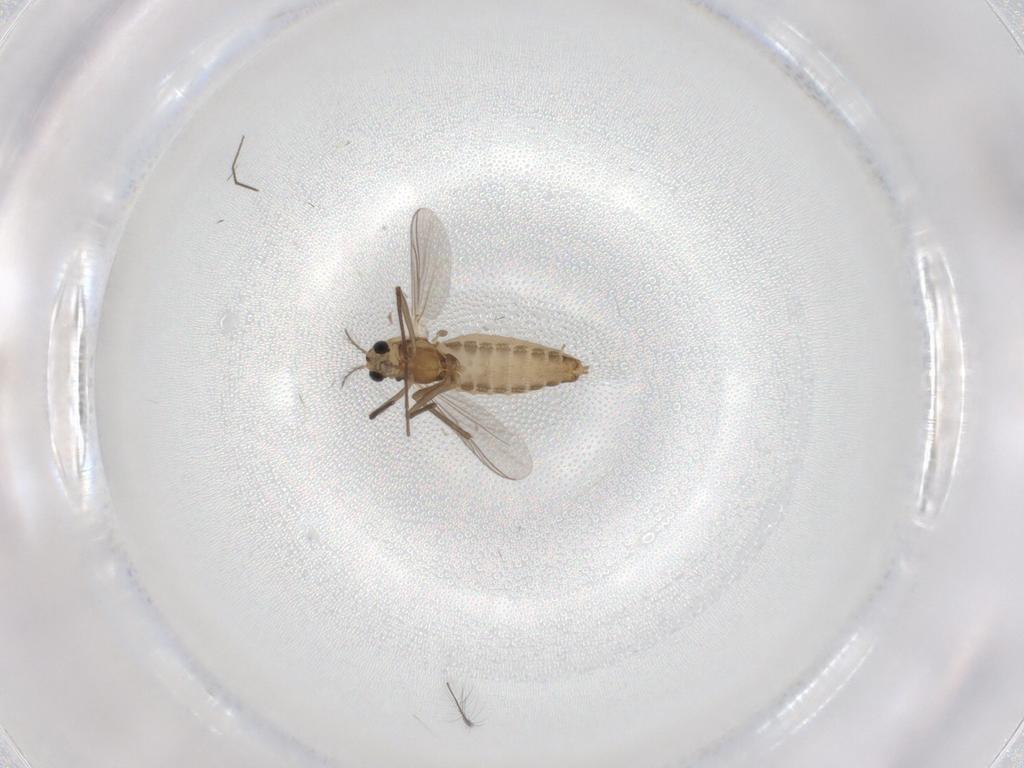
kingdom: Animalia
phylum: Arthropoda
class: Insecta
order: Diptera
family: Chironomidae
